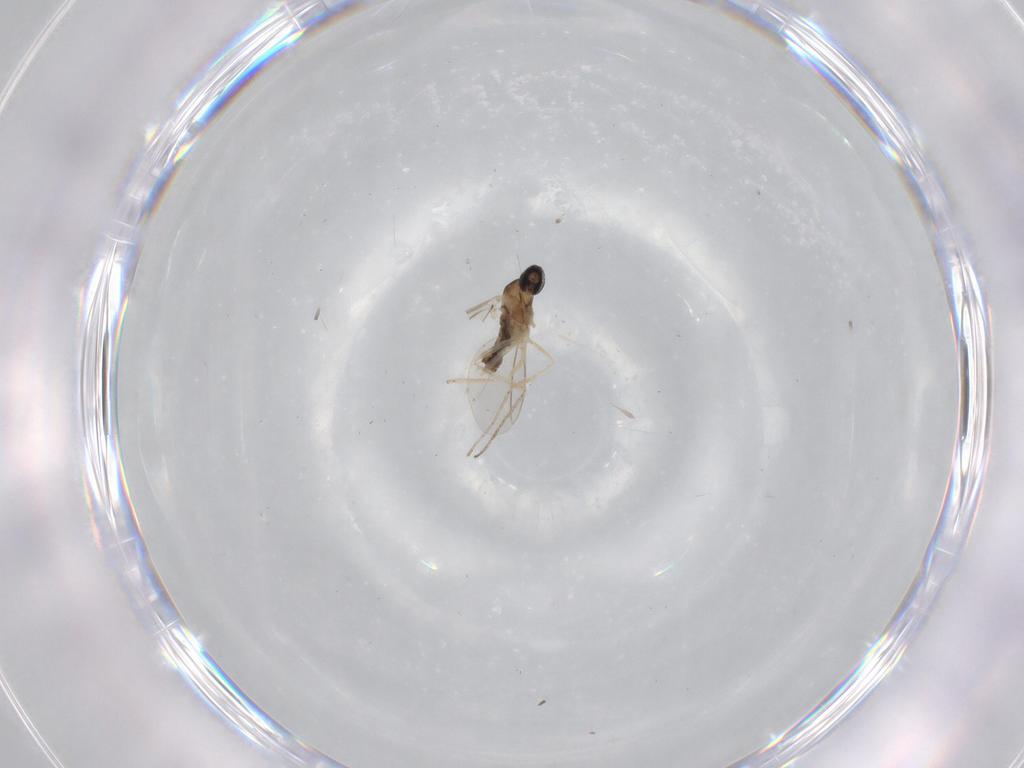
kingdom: Animalia
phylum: Arthropoda
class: Insecta
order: Diptera
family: Cecidomyiidae
